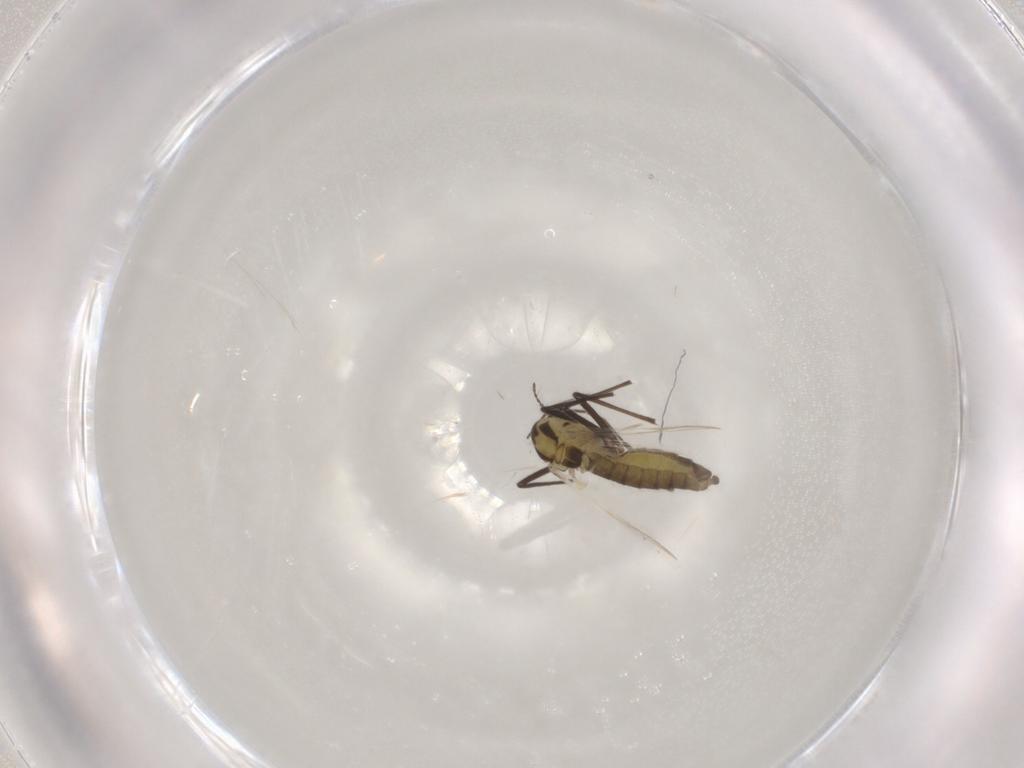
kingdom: Animalia
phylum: Arthropoda
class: Insecta
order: Diptera
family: Chironomidae
